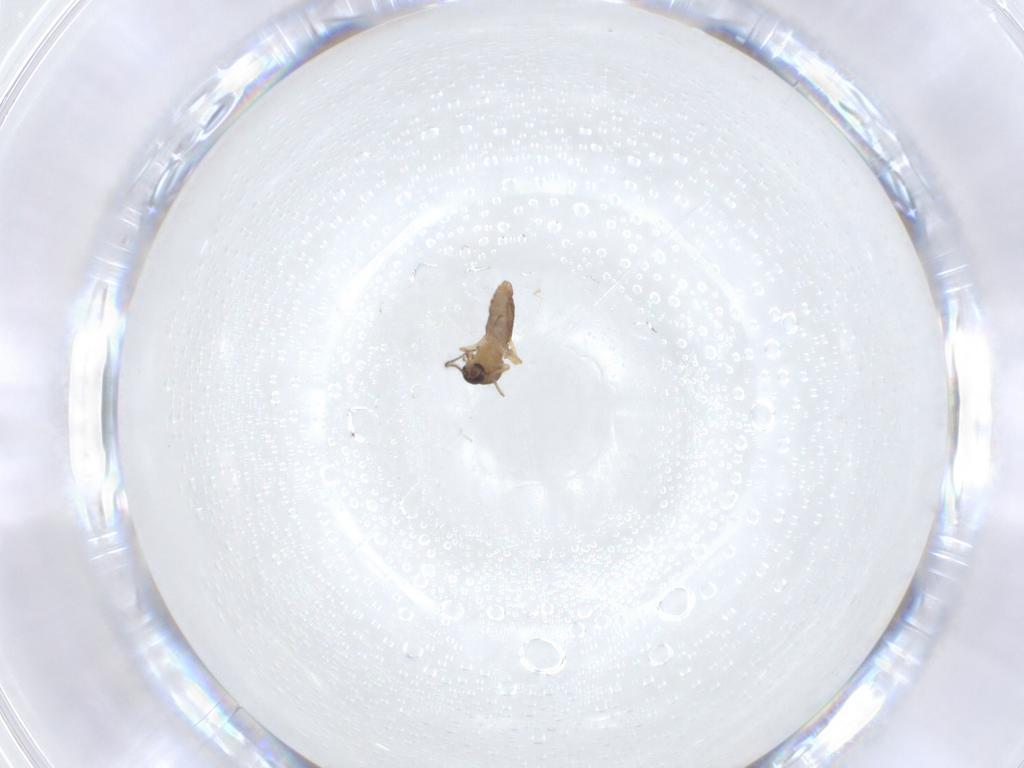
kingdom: Animalia
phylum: Arthropoda
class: Insecta
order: Diptera
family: Ceratopogonidae
